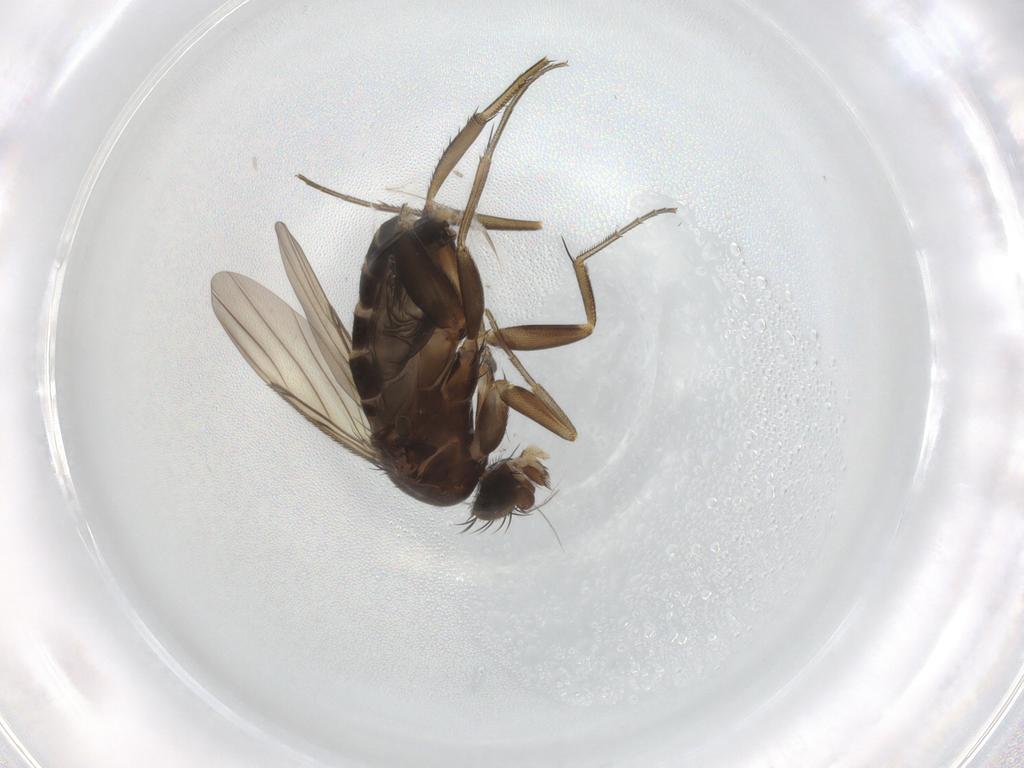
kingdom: Animalia
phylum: Arthropoda
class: Insecta
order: Diptera
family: Phoridae
